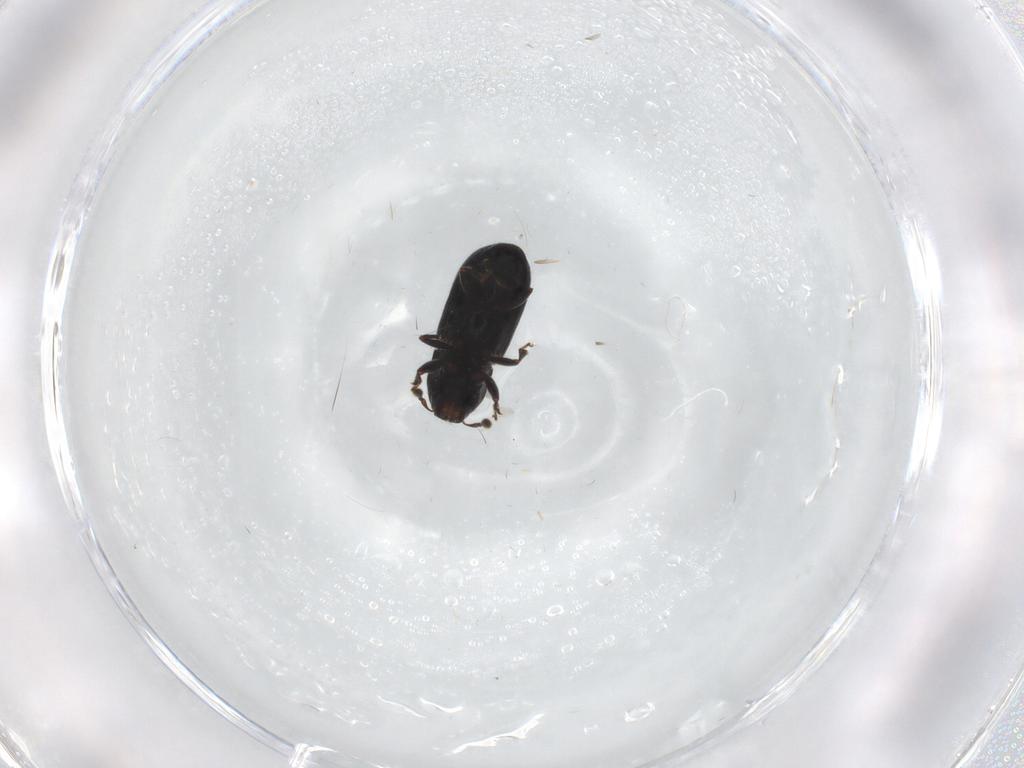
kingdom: Animalia
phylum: Arthropoda
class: Insecta
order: Coleoptera
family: Curculionidae
